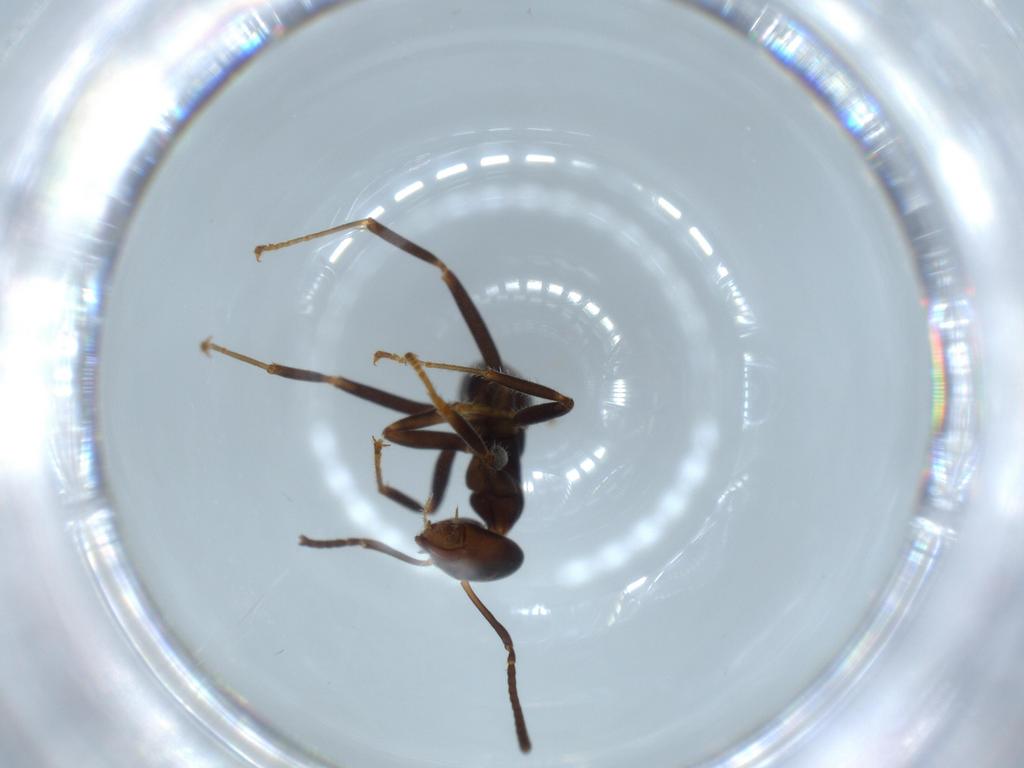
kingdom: Animalia
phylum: Arthropoda
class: Insecta
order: Hymenoptera
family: Formicidae
